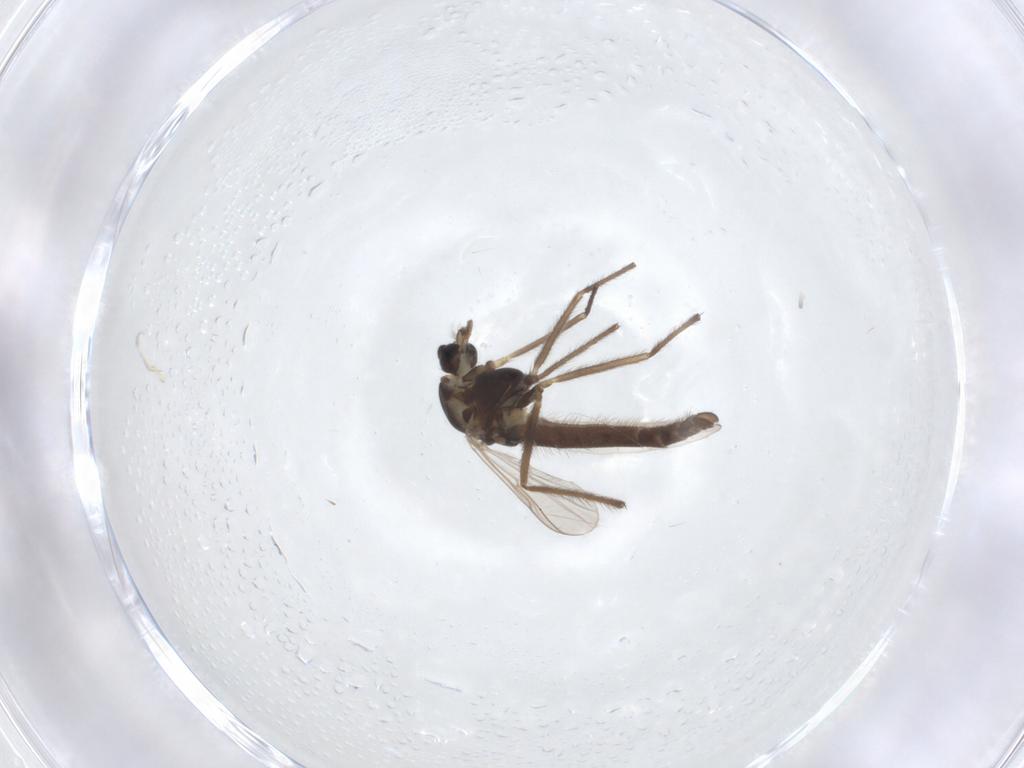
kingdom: Animalia
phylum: Arthropoda
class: Insecta
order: Diptera
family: Chironomidae
